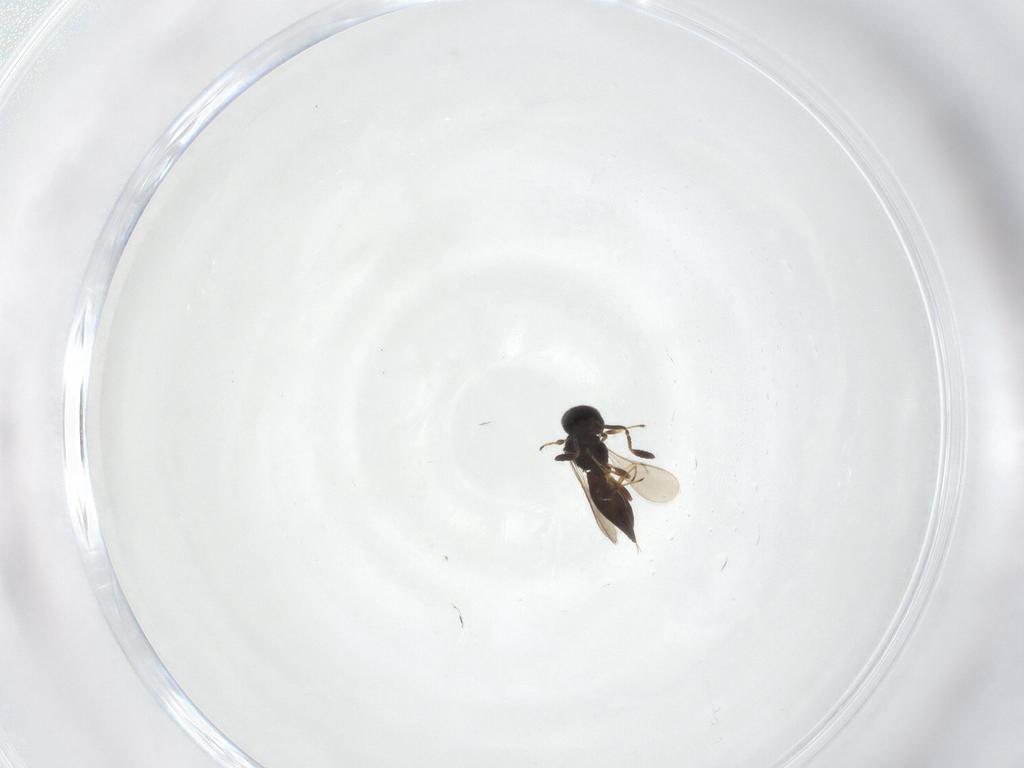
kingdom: Animalia
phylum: Arthropoda
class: Insecta
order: Hymenoptera
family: Scelionidae
